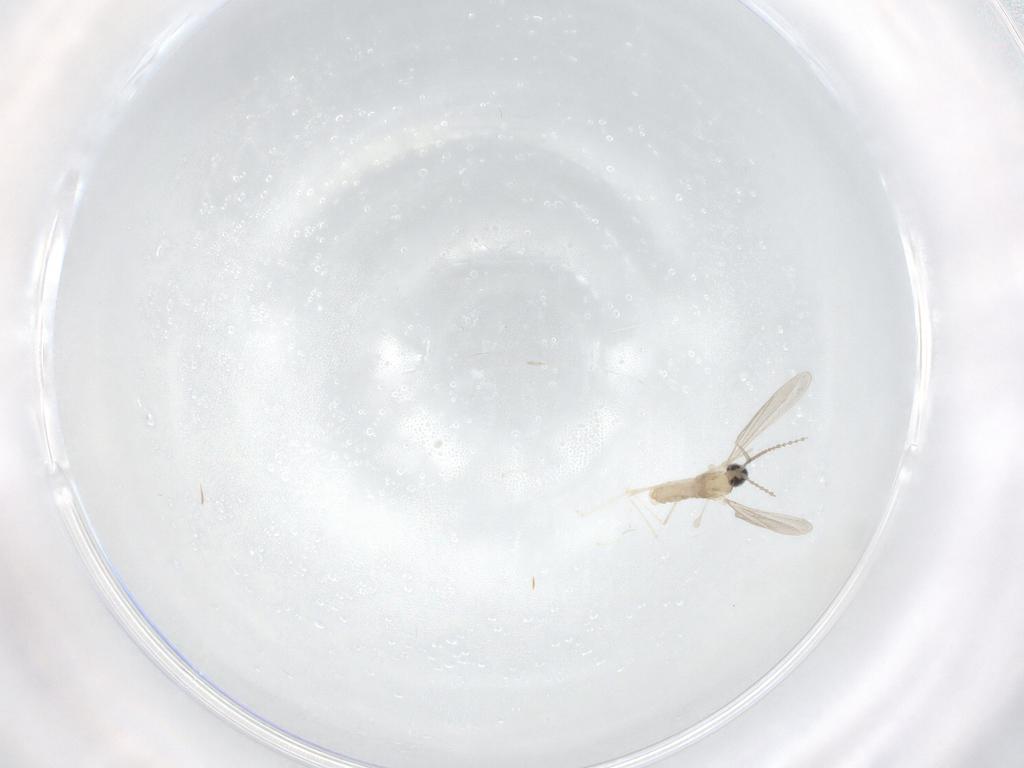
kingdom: Animalia
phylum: Arthropoda
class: Insecta
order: Diptera
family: Cecidomyiidae
